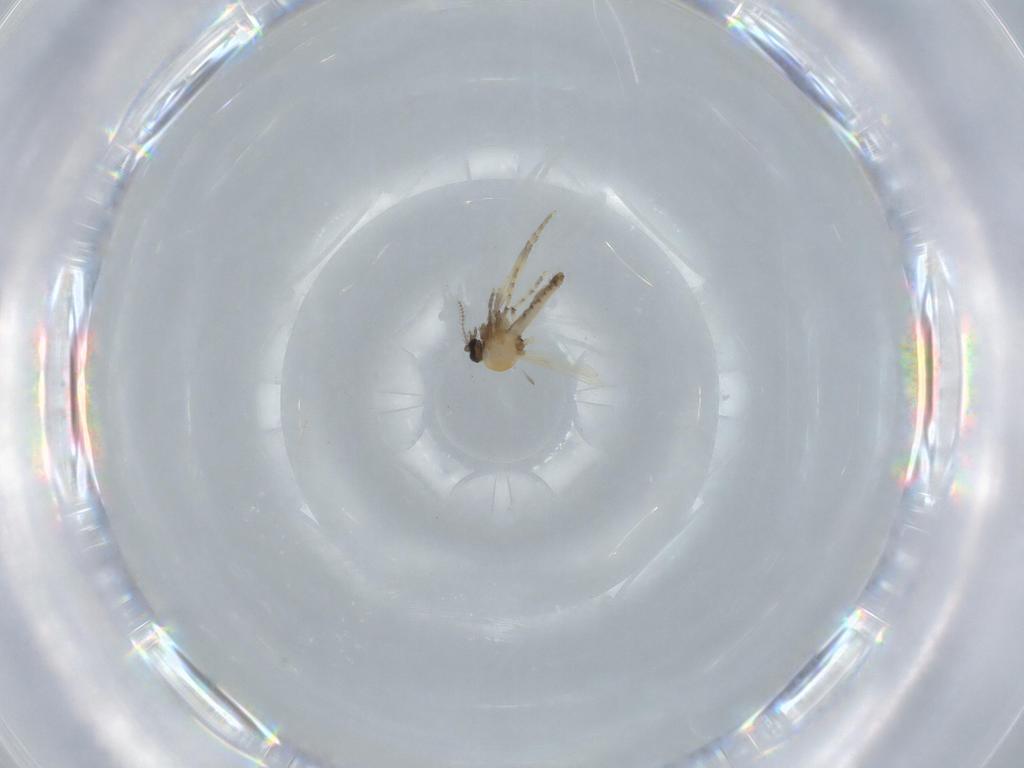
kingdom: Animalia
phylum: Arthropoda
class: Insecta
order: Diptera
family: Ceratopogonidae
